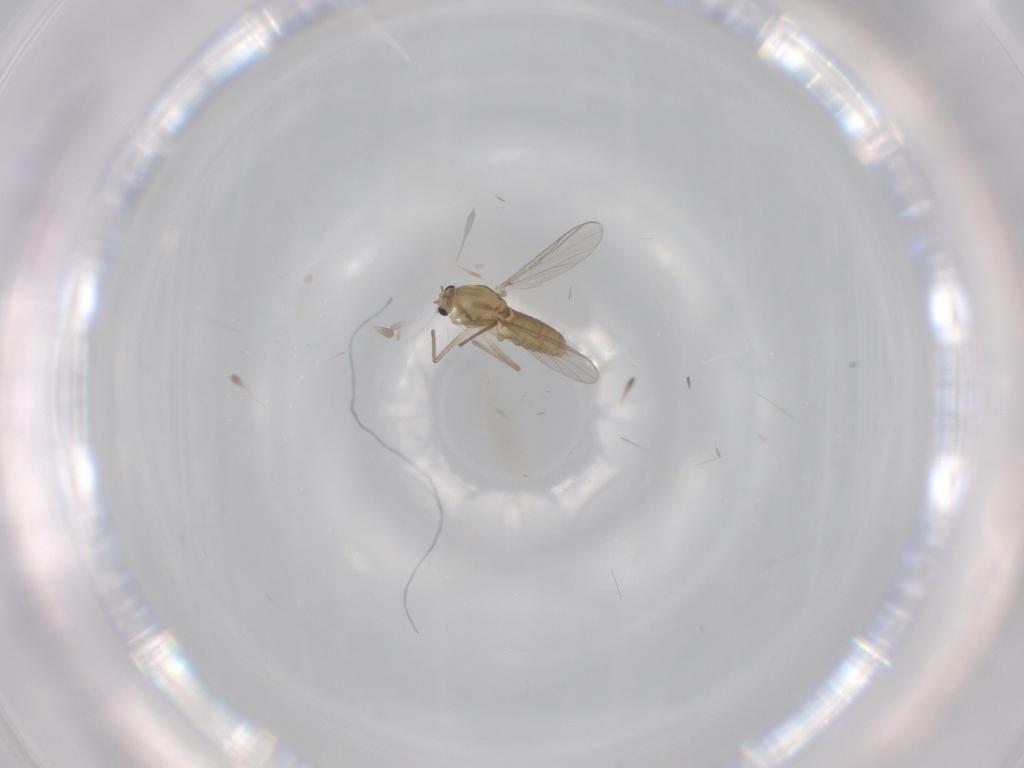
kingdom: Animalia
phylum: Arthropoda
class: Insecta
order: Diptera
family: Chironomidae
